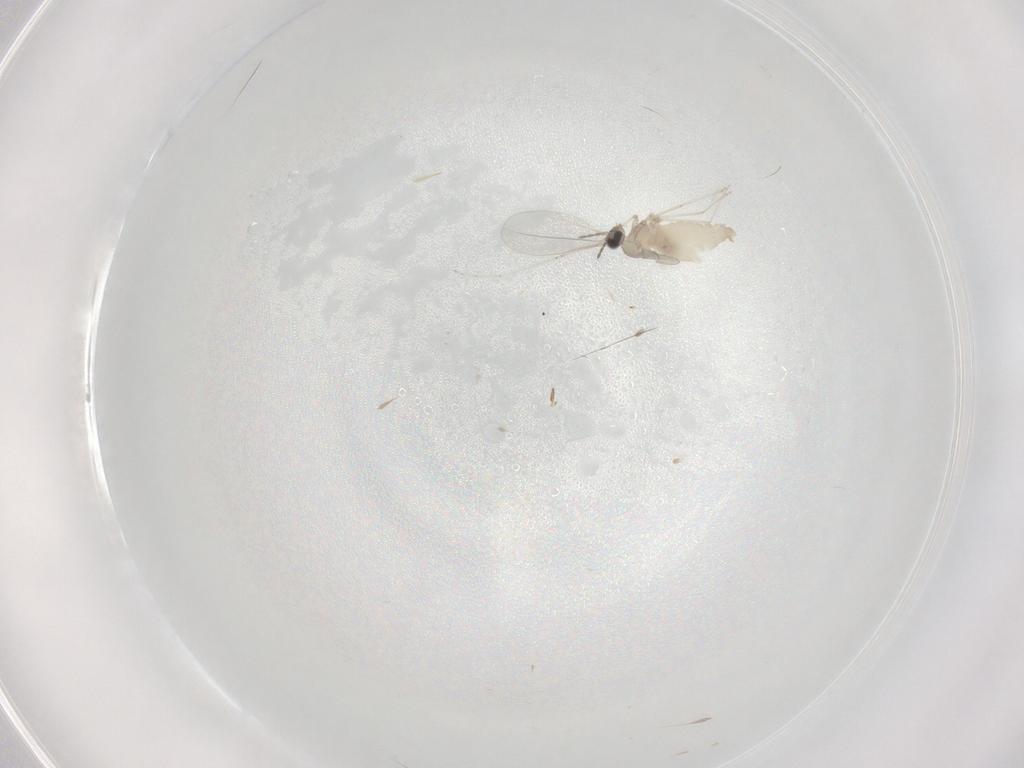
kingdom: Animalia
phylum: Arthropoda
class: Insecta
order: Diptera
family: Cecidomyiidae
